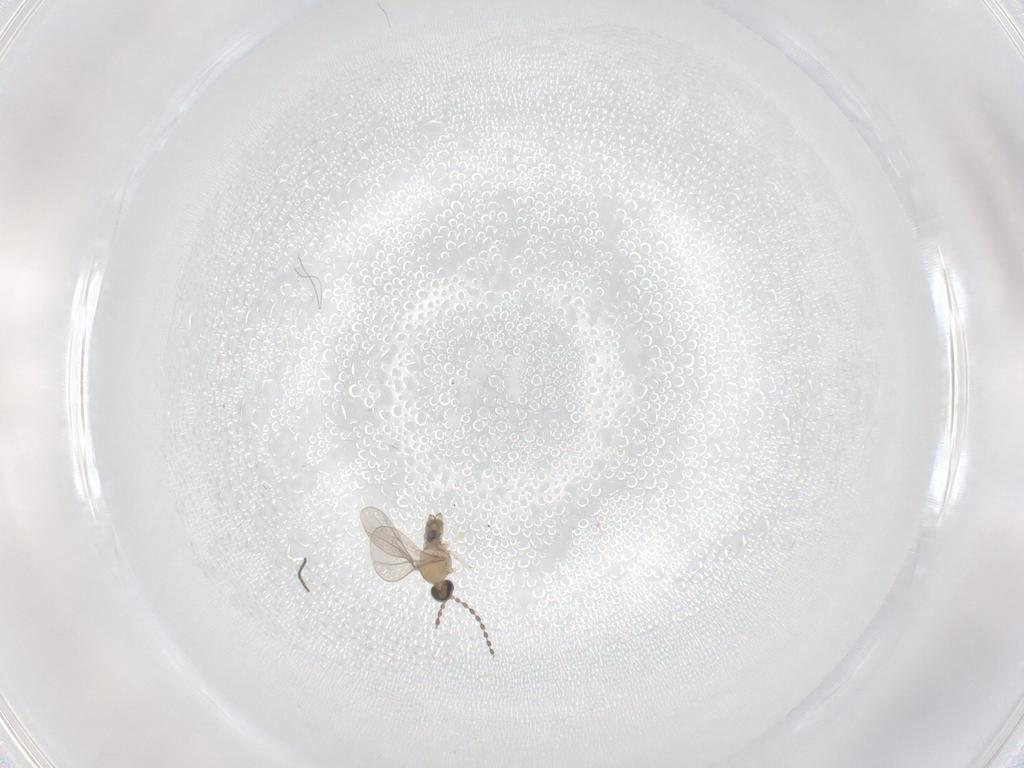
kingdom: Animalia
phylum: Arthropoda
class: Insecta
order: Diptera
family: Cecidomyiidae
